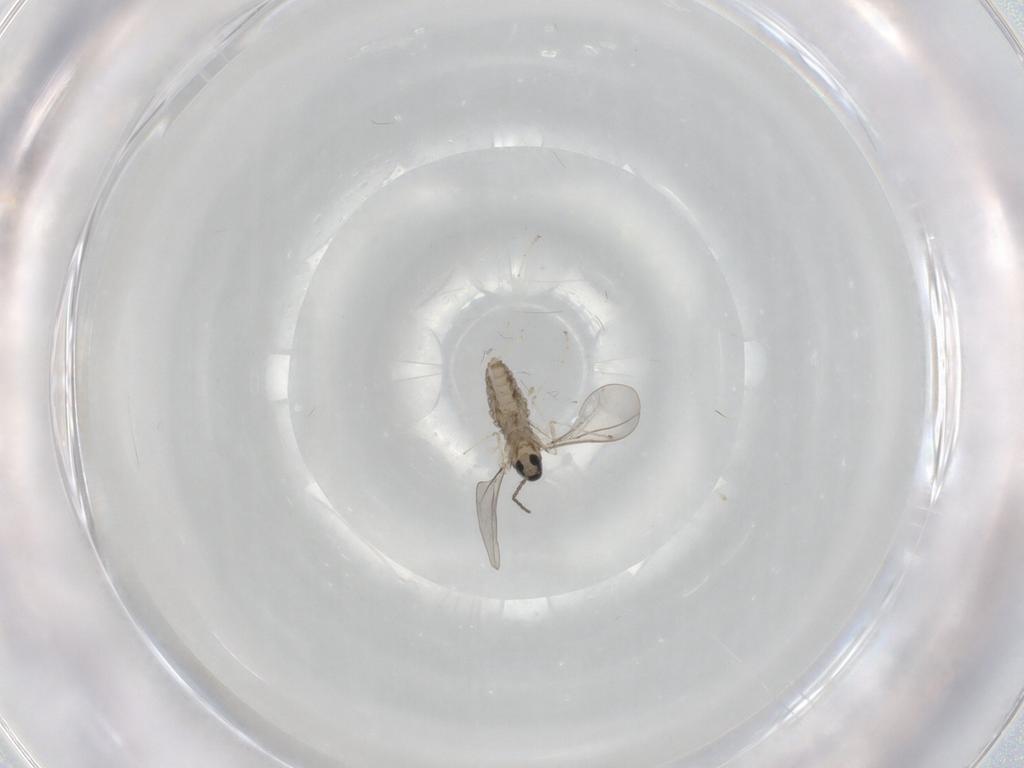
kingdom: Animalia
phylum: Arthropoda
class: Insecta
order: Diptera
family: Cecidomyiidae
